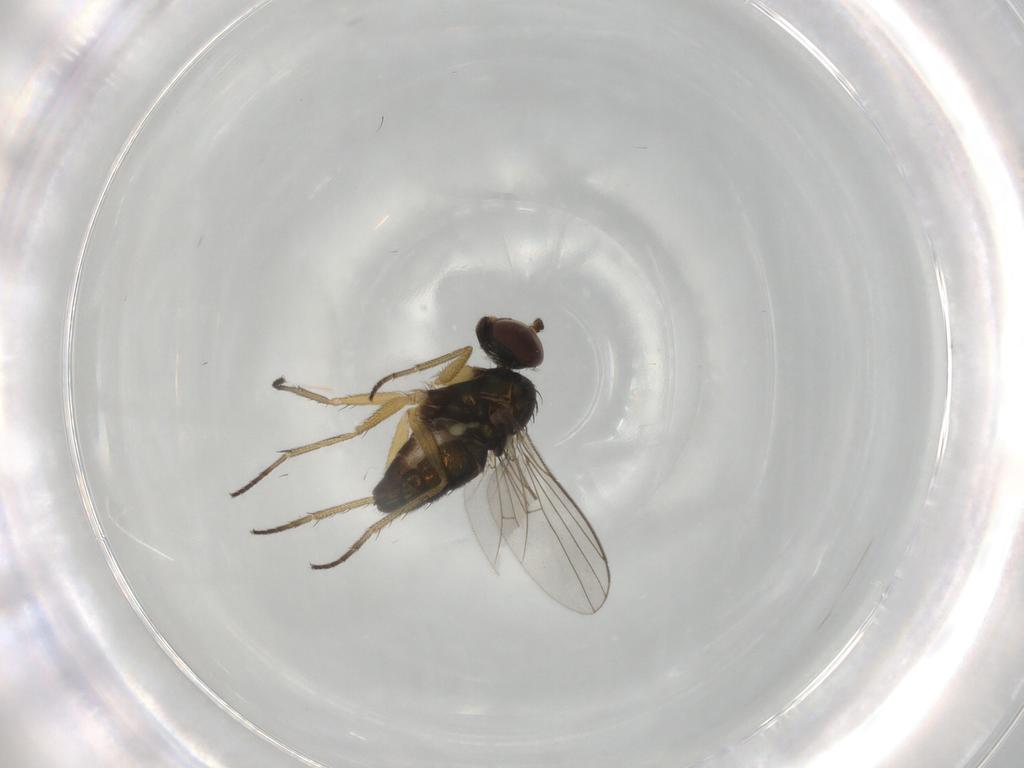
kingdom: Animalia
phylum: Arthropoda
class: Insecta
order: Diptera
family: Dolichopodidae
